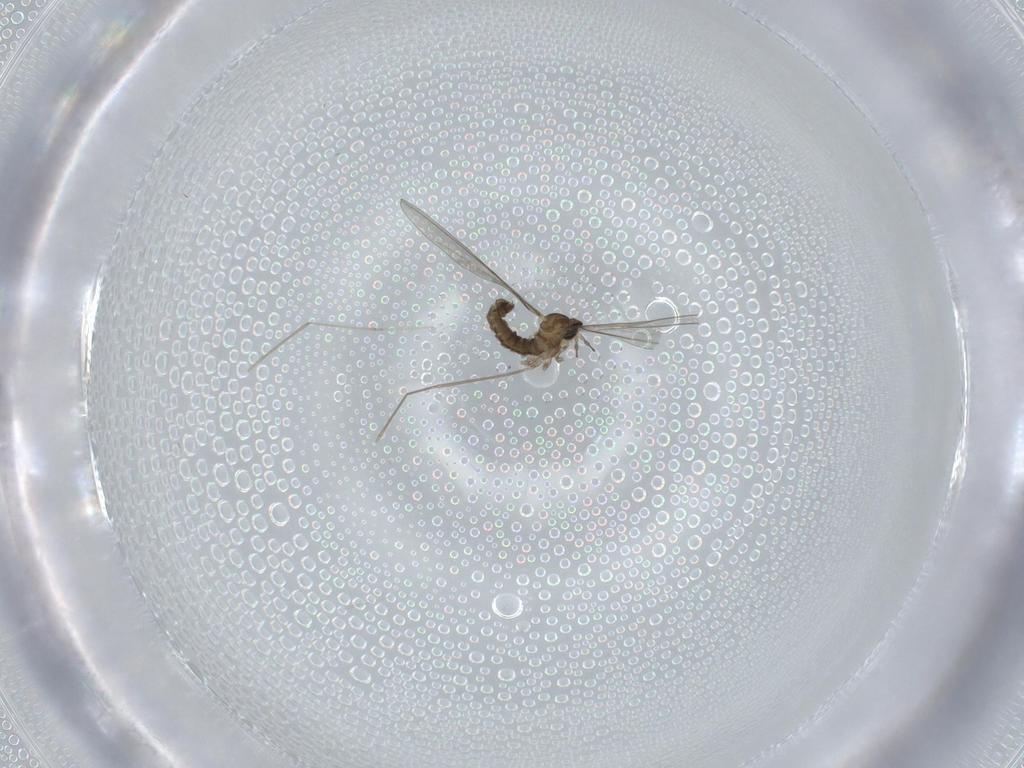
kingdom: Animalia
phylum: Arthropoda
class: Insecta
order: Diptera
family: Cecidomyiidae
